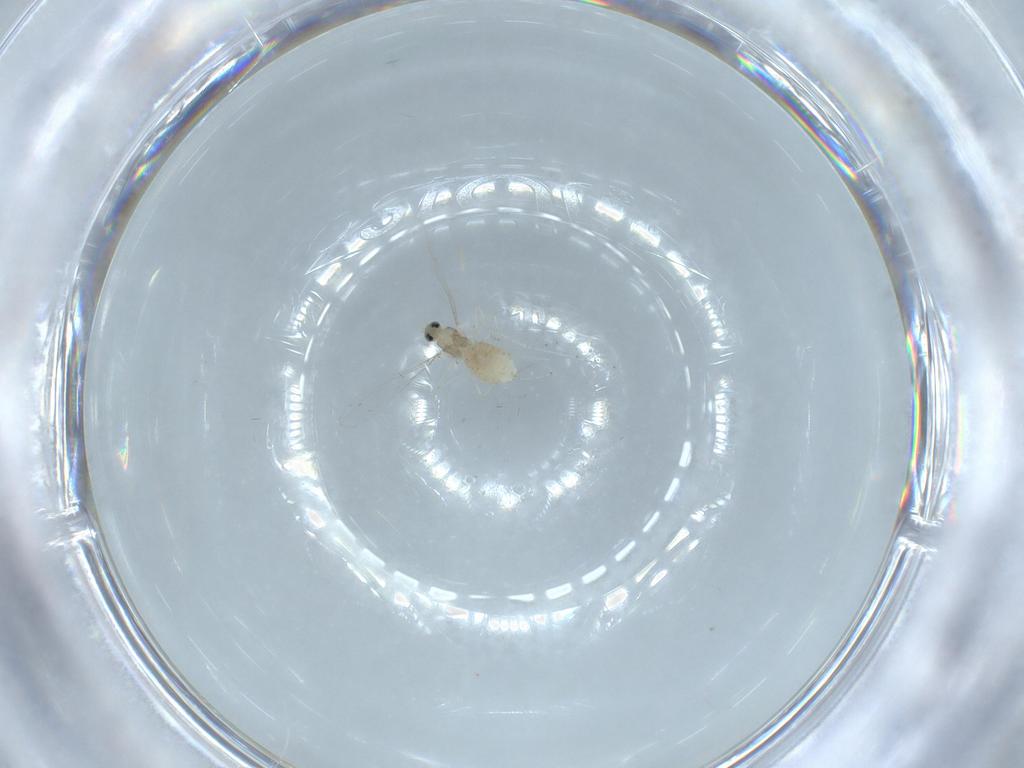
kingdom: Animalia
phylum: Arthropoda
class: Insecta
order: Diptera
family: Cecidomyiidae
